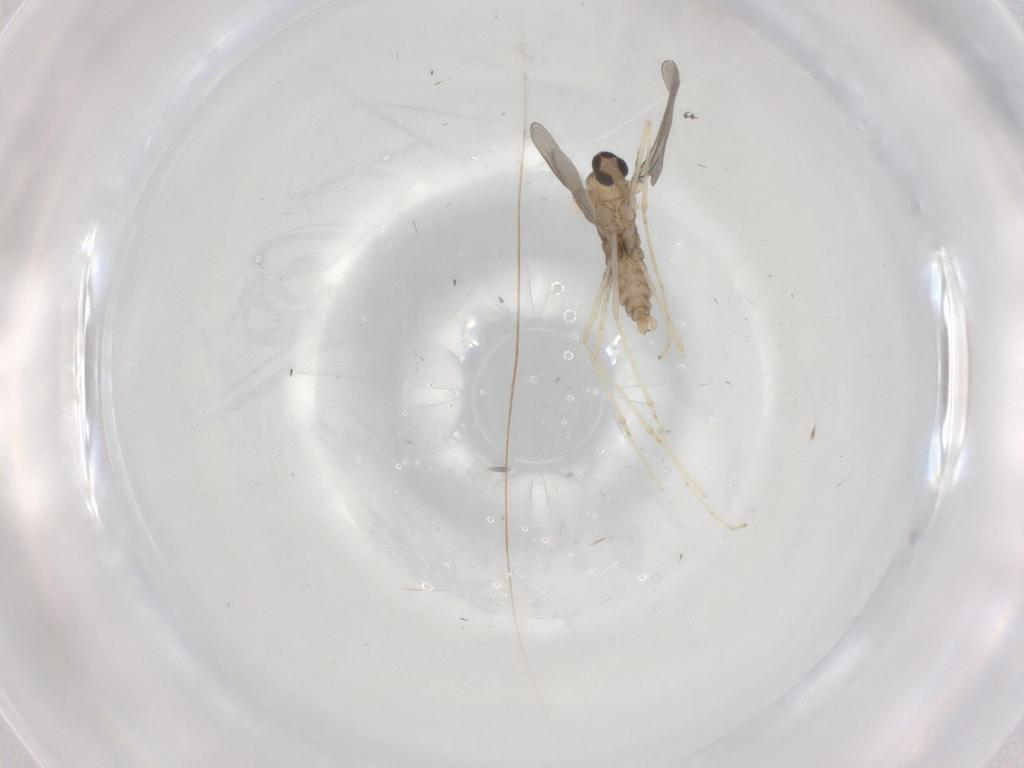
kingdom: Animalia
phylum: Arthropoda
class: Insecta
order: Diptera
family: Cecidomyiidae
